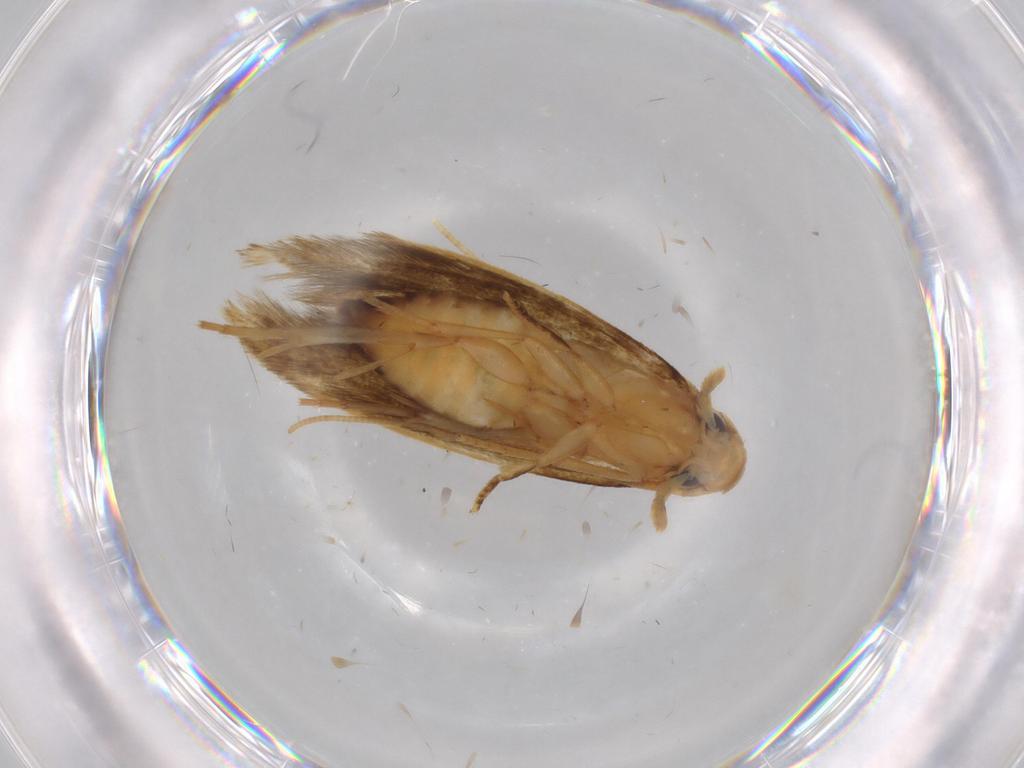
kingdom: Animalia
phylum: Arthropoda
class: Insecta
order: Lepidoptera
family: Tineidae
